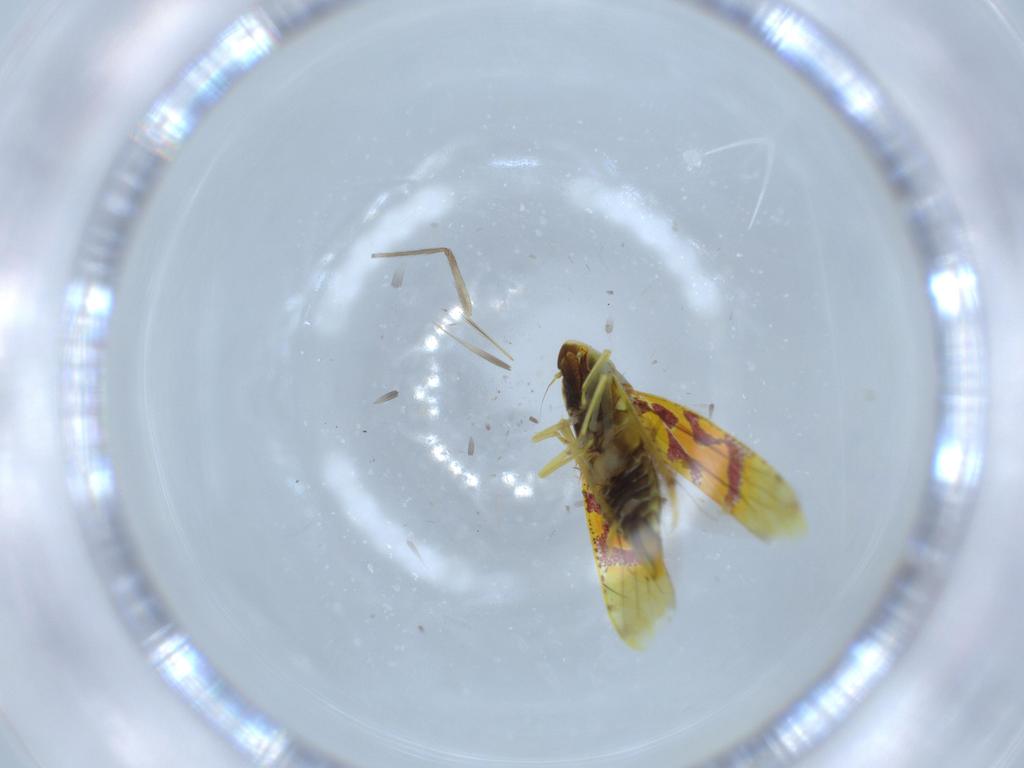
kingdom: Animalia
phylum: Arthropoda
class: Insecta
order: Hemiptera
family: Cicadellidae
